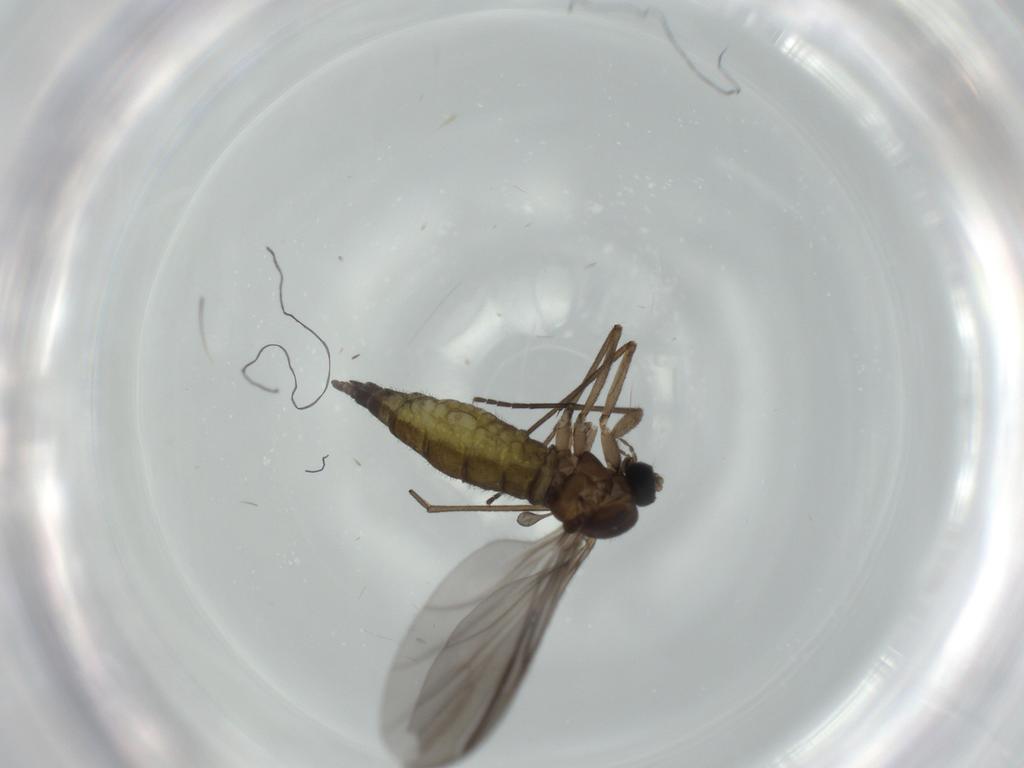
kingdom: Animalia
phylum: Arthropoda
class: Insecta
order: Diptera
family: Sciaridae
